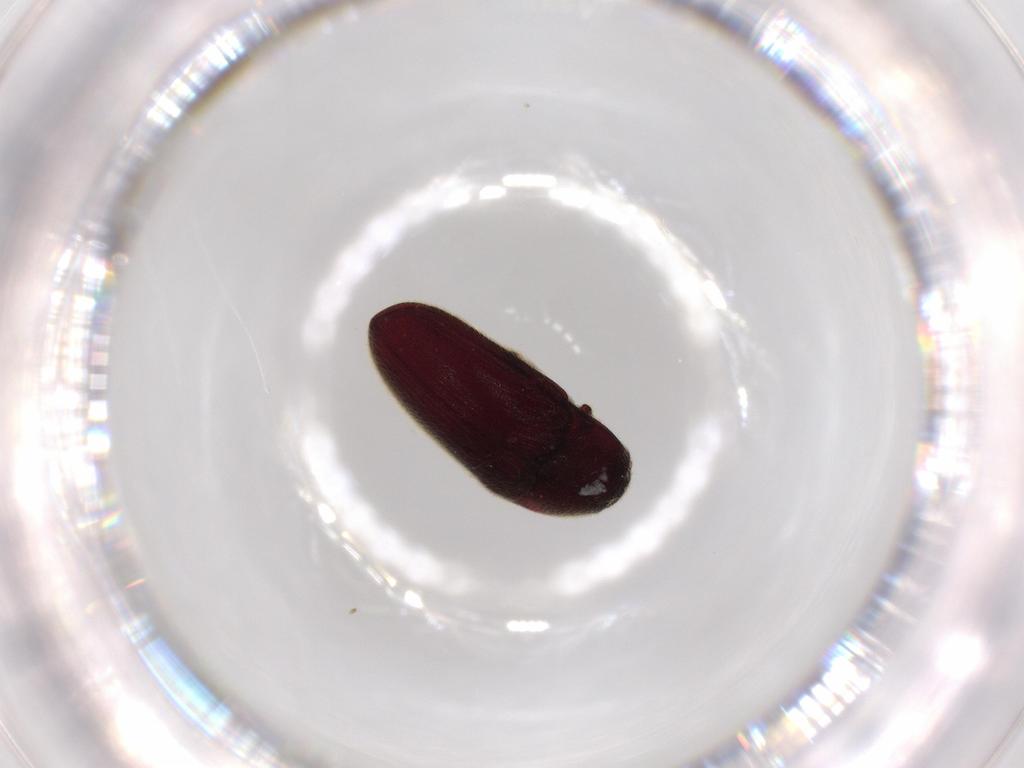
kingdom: Animalia
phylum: Arthropoda
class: Insecta
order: Coleoptera
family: Throscidae
